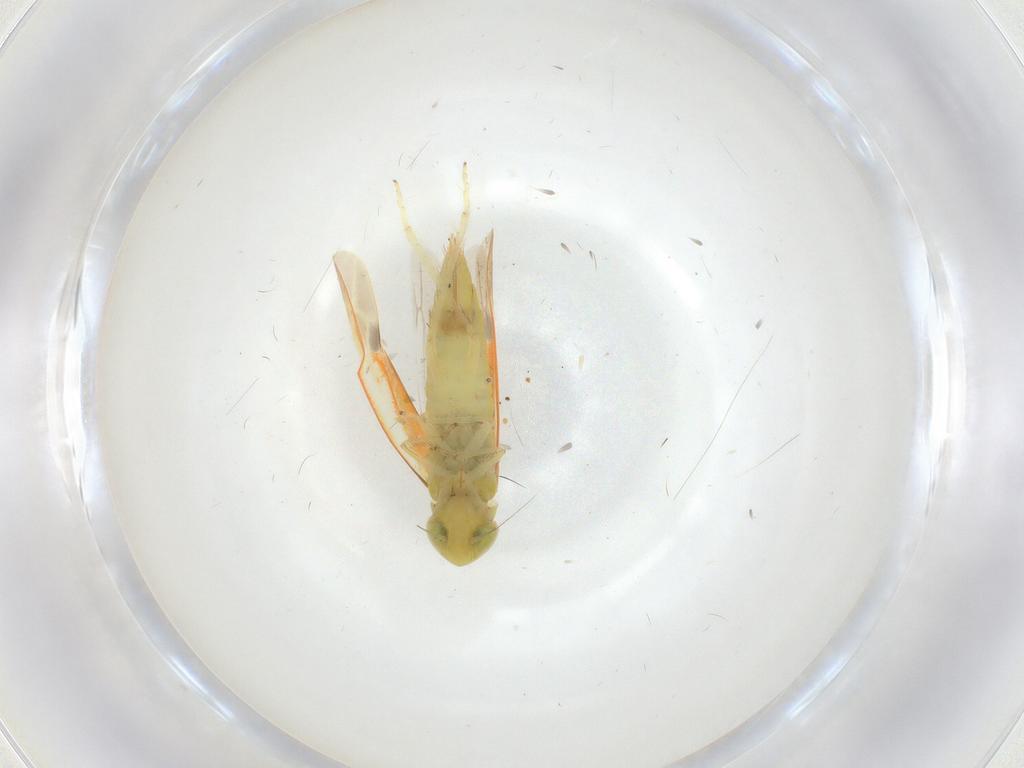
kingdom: Animalia
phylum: Arthropoda
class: Insecta
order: Hemiptera
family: Cicadellidae
